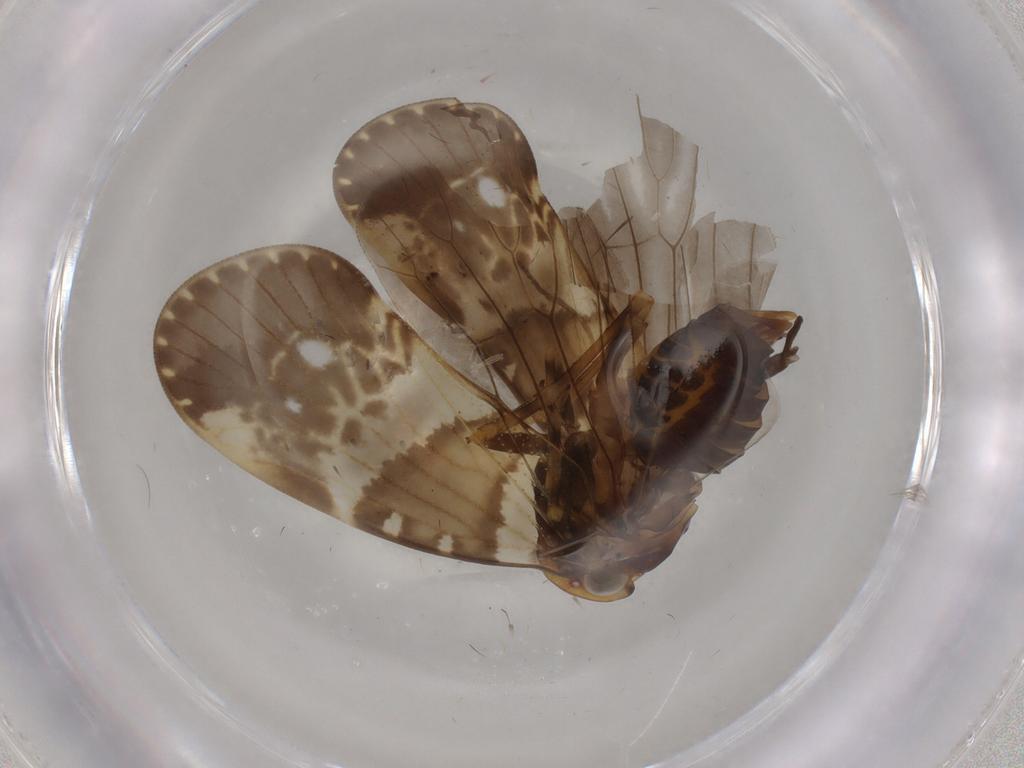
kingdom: Animalia
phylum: Arthropoda
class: Insecta
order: Hemiptera
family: Cixiidae
